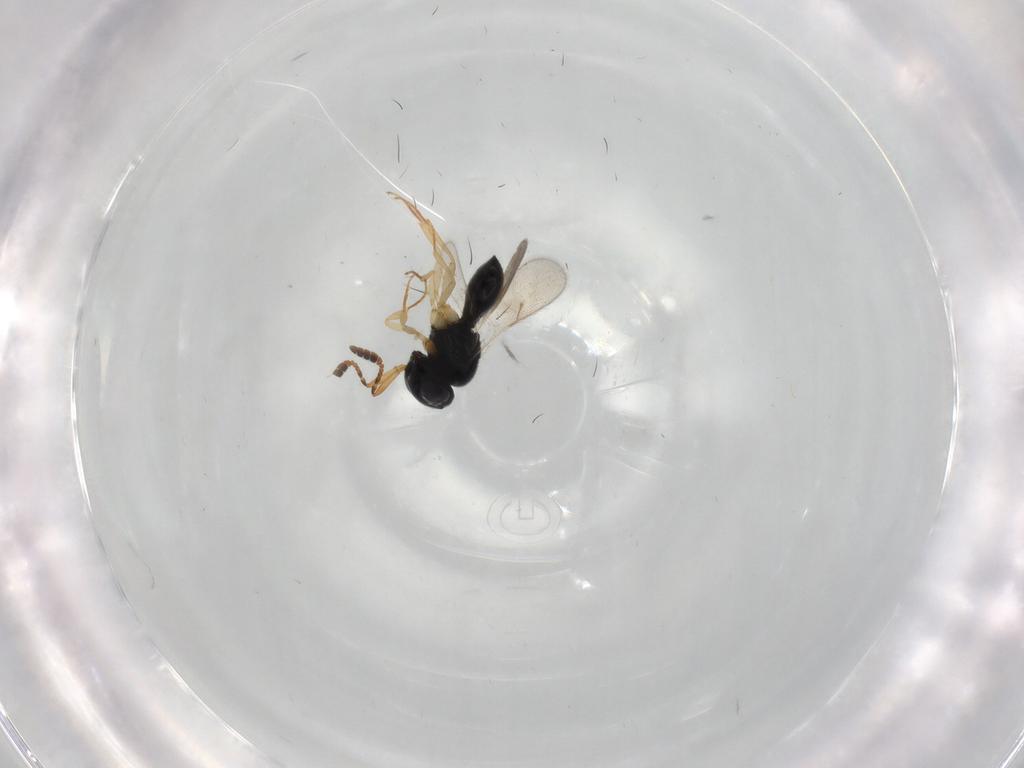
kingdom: Animalia
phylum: Arthropoda
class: Insecta
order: Hymenoptera
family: Scelionidae
